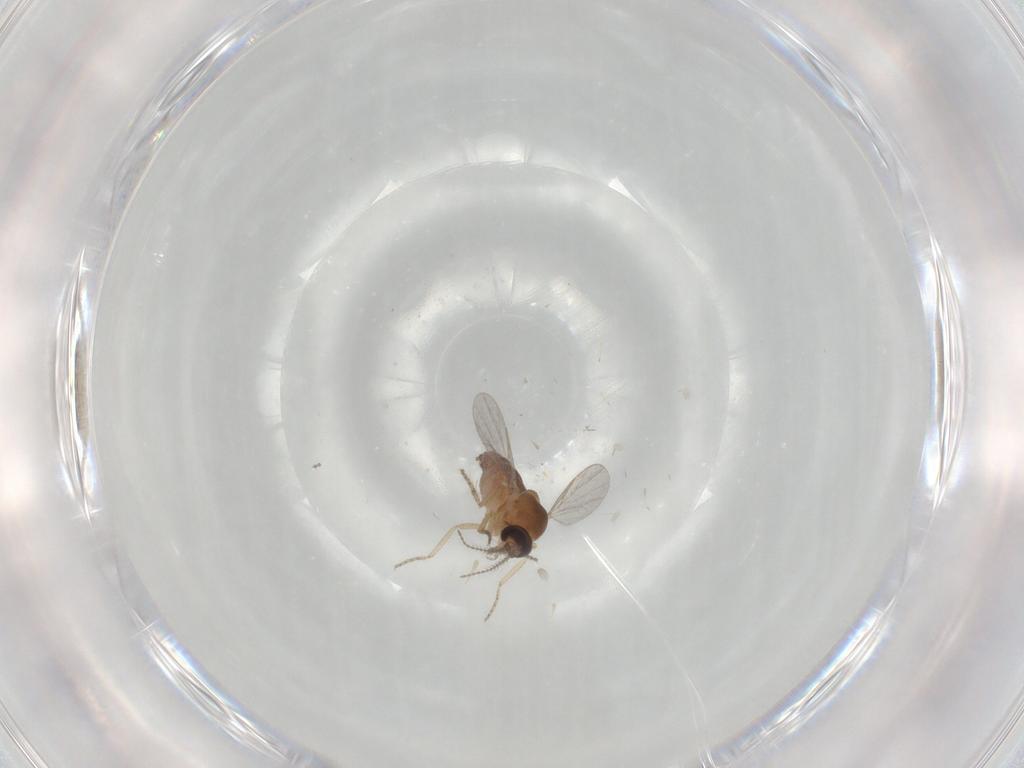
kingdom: Animalia
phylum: Arthropoda
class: Insecta
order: Diptera
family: Ceratopogonidae
